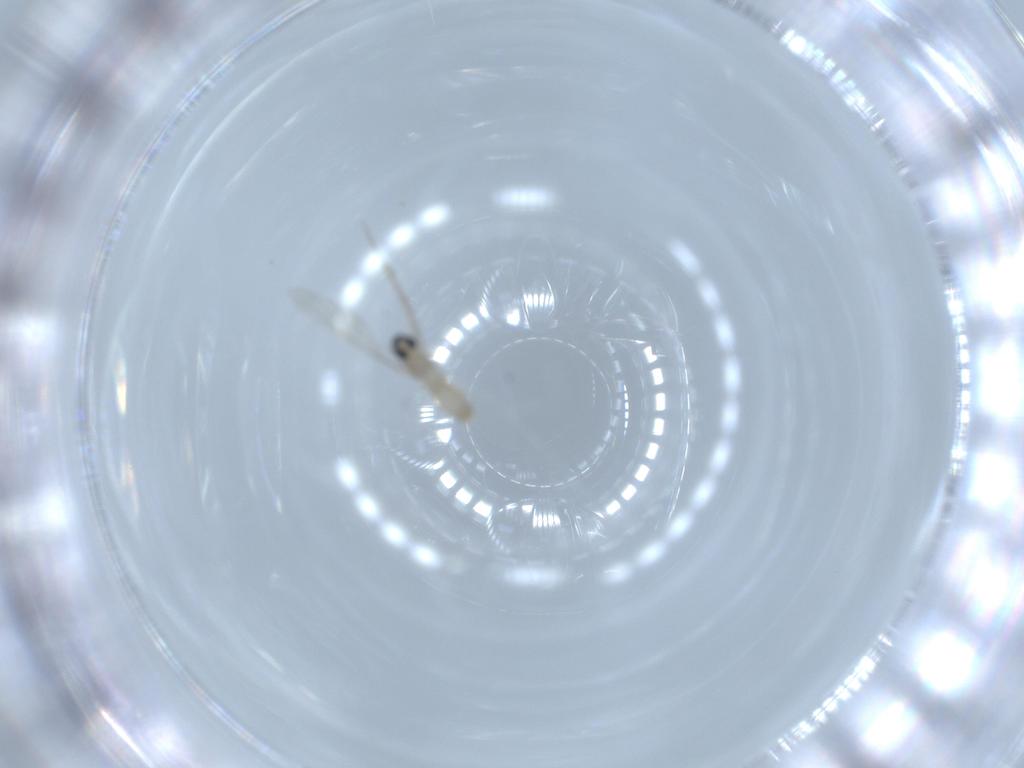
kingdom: Animalia
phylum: Arthropoda
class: Insecta
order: Diptera
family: Cecidomyiidae
